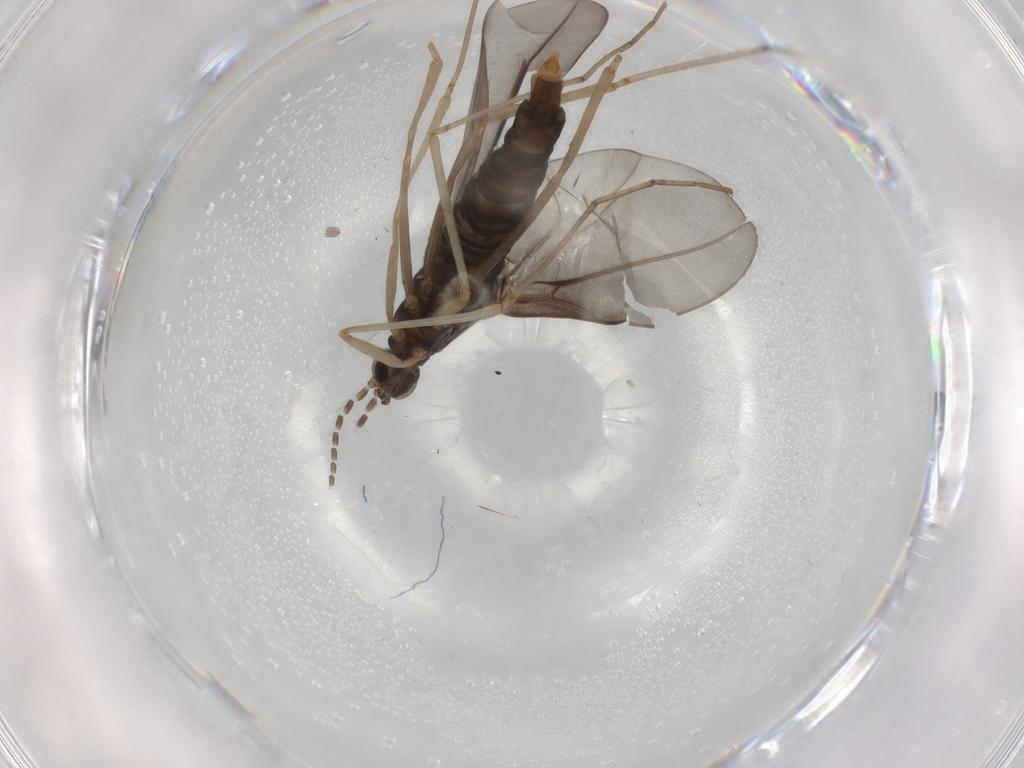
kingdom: Animalia
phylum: Arthropoda
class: Insecta
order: Diptera
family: Cecidomyiidae
